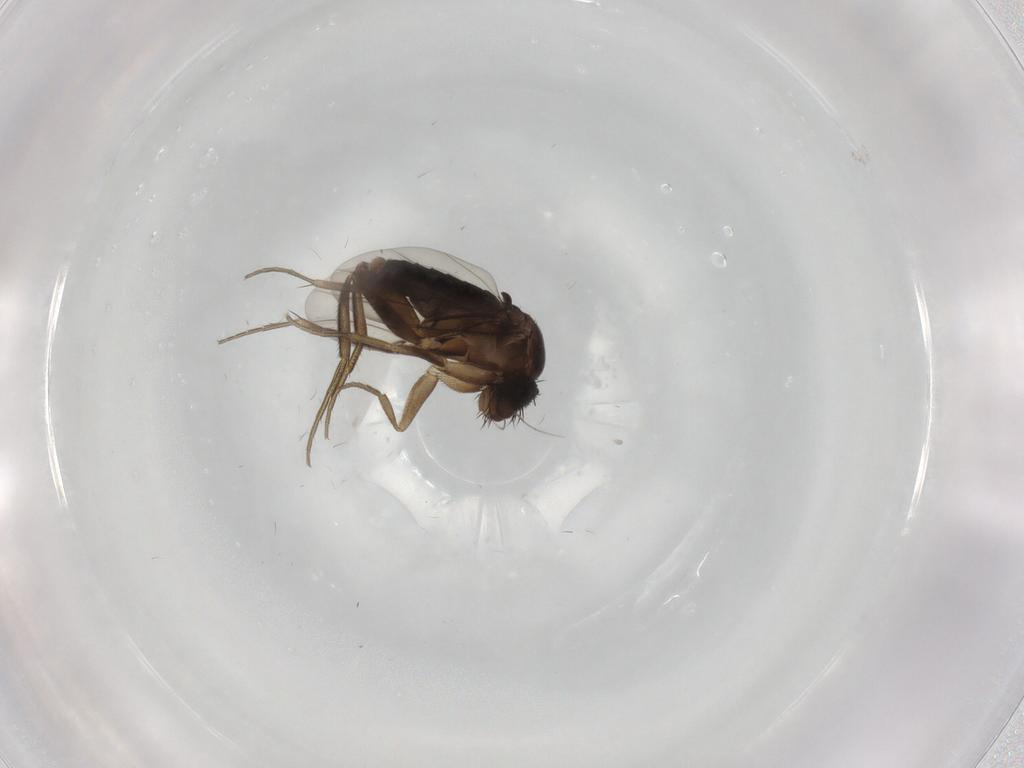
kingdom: Animalia
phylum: Arthropoda
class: Insecta
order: Diptera
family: Phoridae
